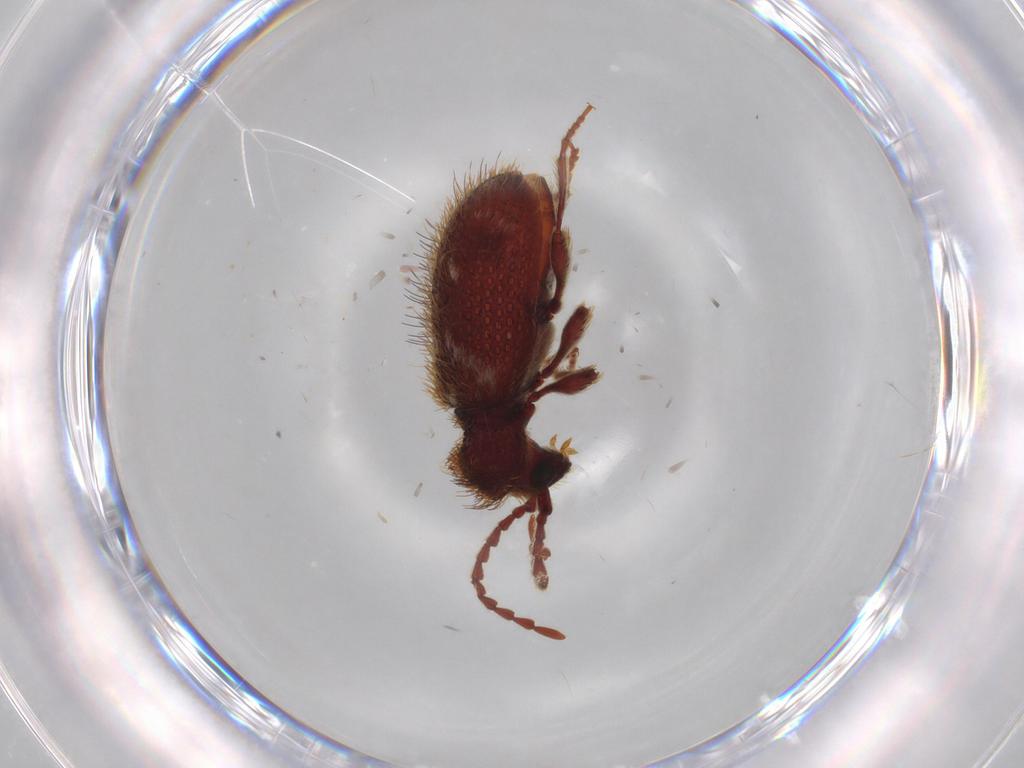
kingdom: Animalia
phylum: Arthropoda
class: Insecta
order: Coleoptera
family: Ptinidae
